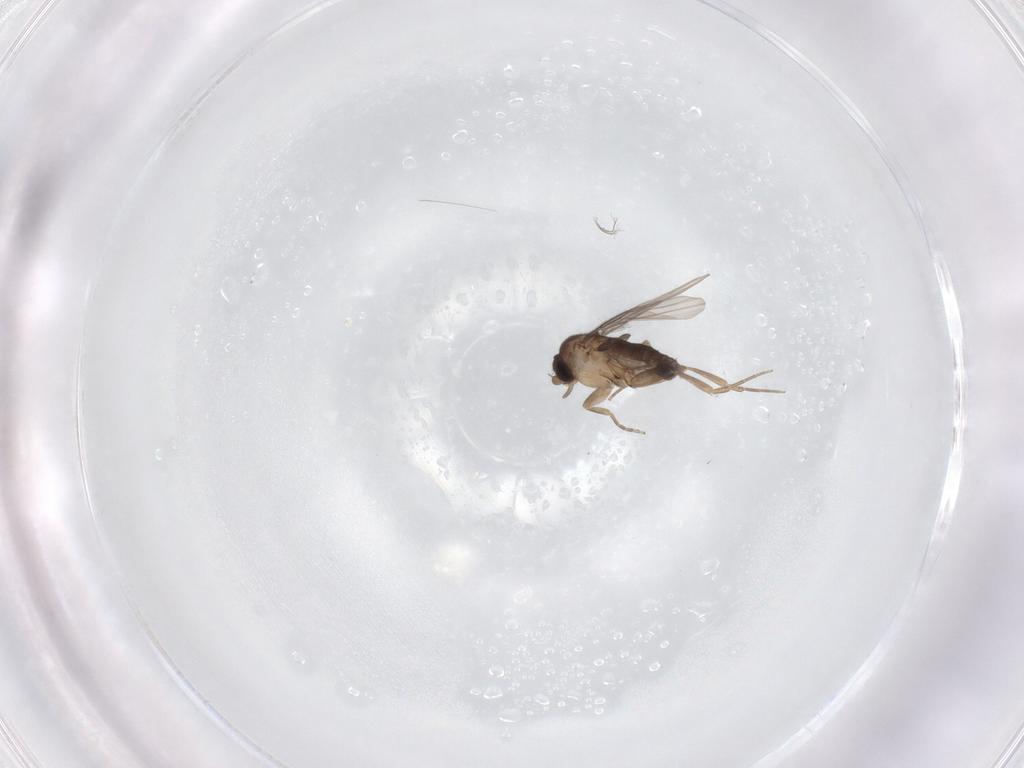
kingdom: Animalia
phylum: Arthropoda
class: Insecta
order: Diptera
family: Phoridae
